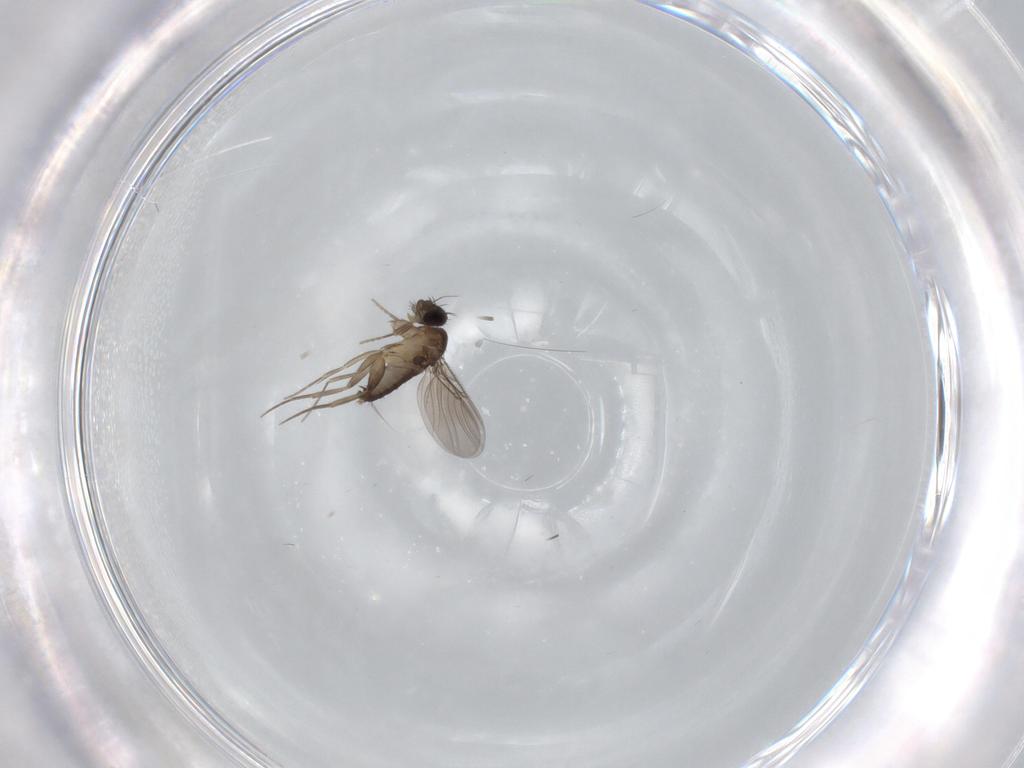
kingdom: Animalia
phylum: Arthropoda
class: Insecta
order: Diptera
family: Phoridae
